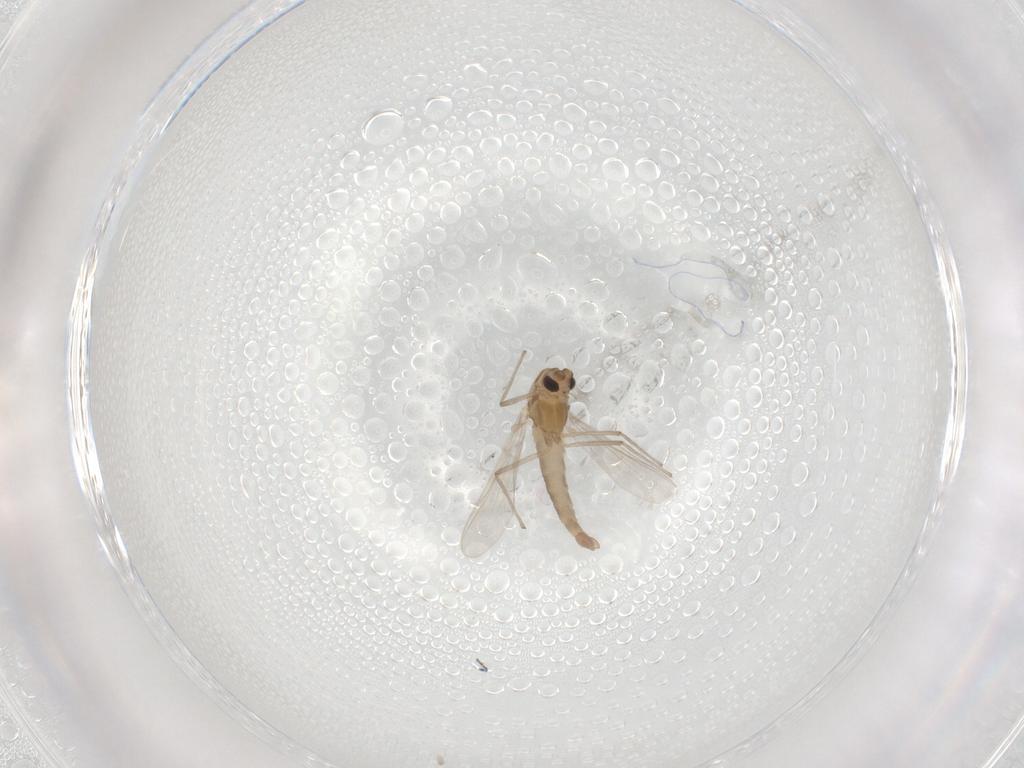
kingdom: Animalia
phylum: Arthropoda
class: Insecta
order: Diptera
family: Chironomidae
